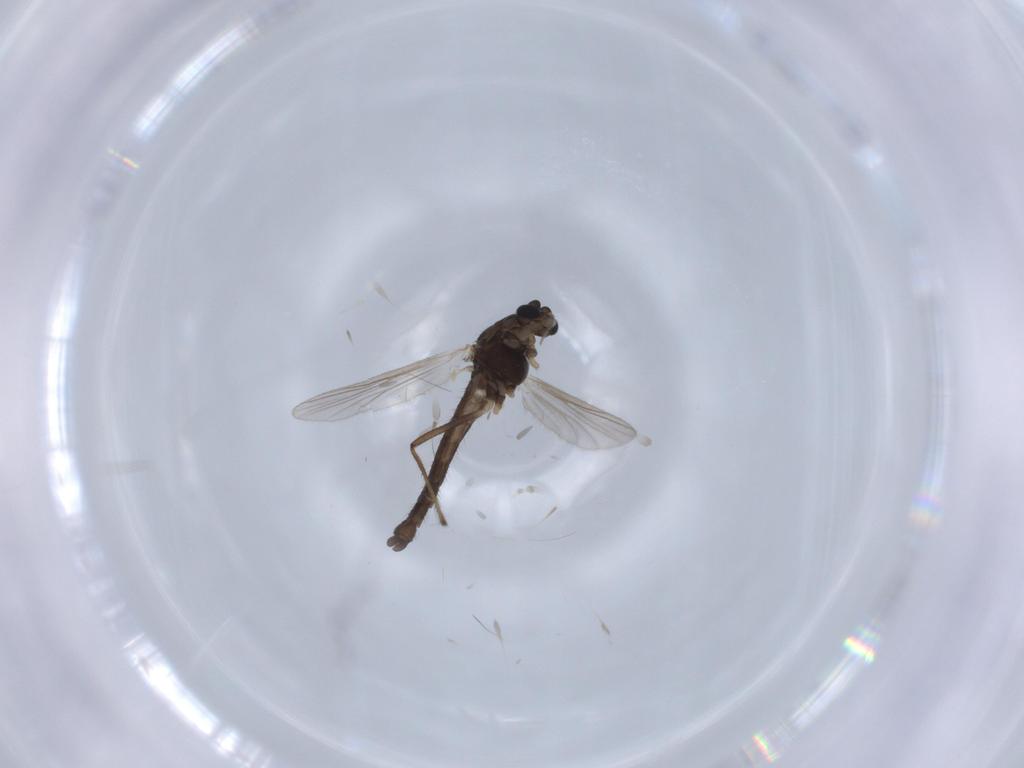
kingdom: Animalia
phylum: Arthropoda
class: Insecta
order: Diptera
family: Chironomidae
